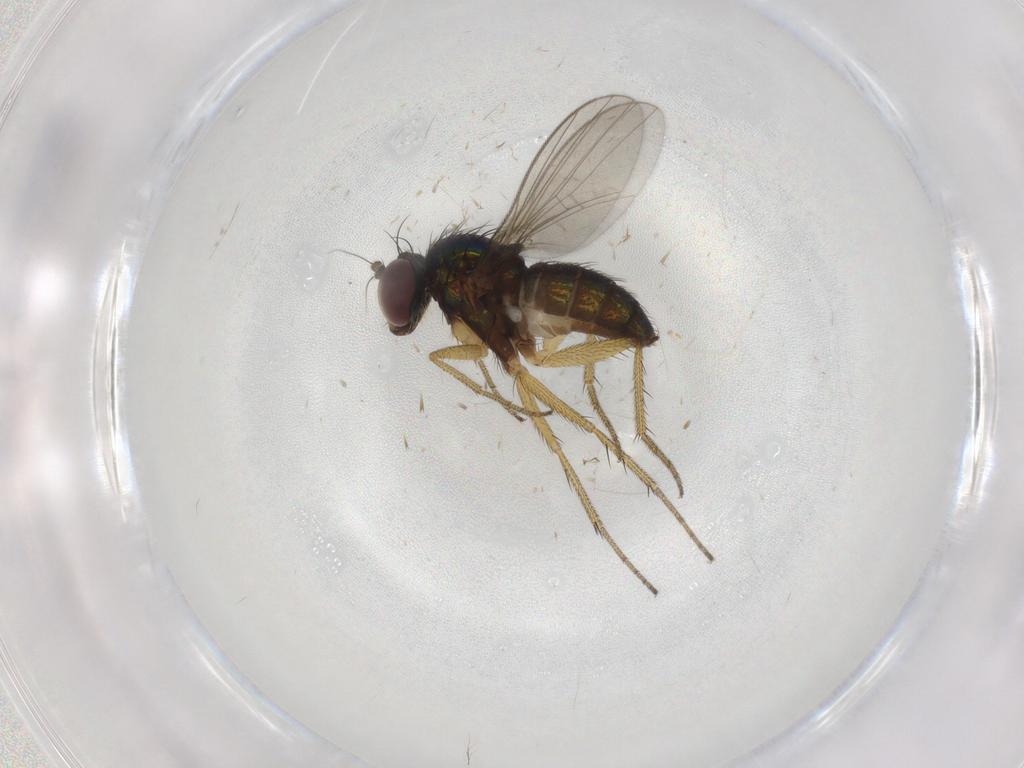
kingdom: Animalia
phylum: Arthropoda
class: Insecta
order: Diptera
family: Dolichopodidae
